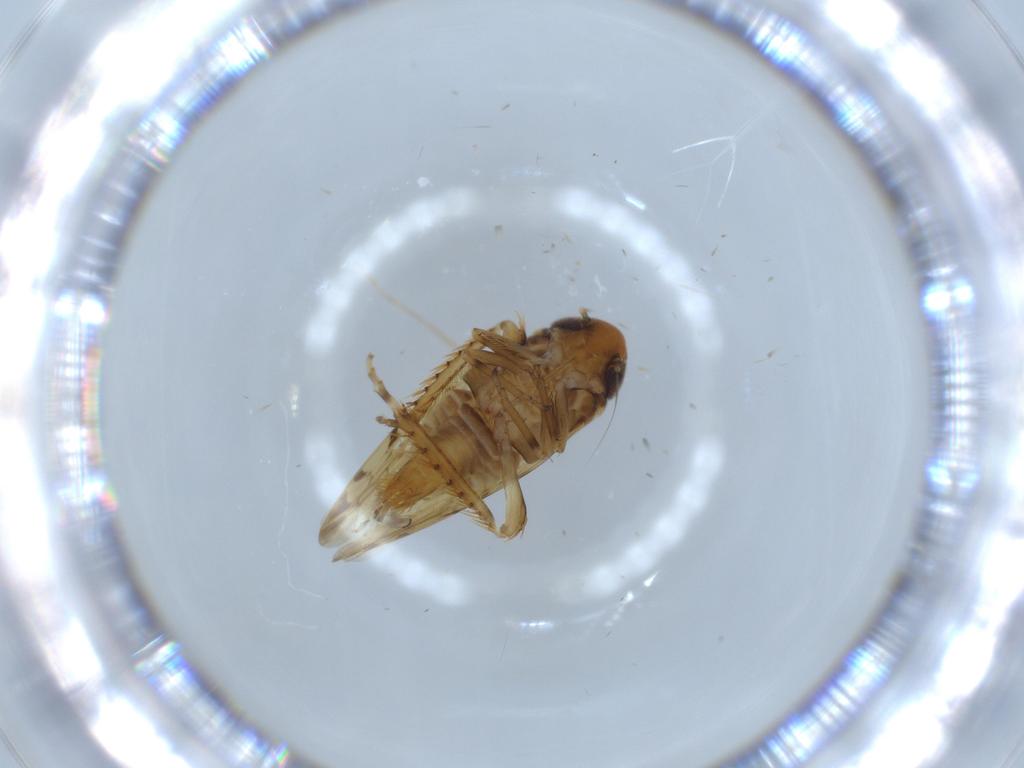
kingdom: Animalia
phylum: Arthropoda
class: Insecta
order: Hemiptera
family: Cicadellidae
